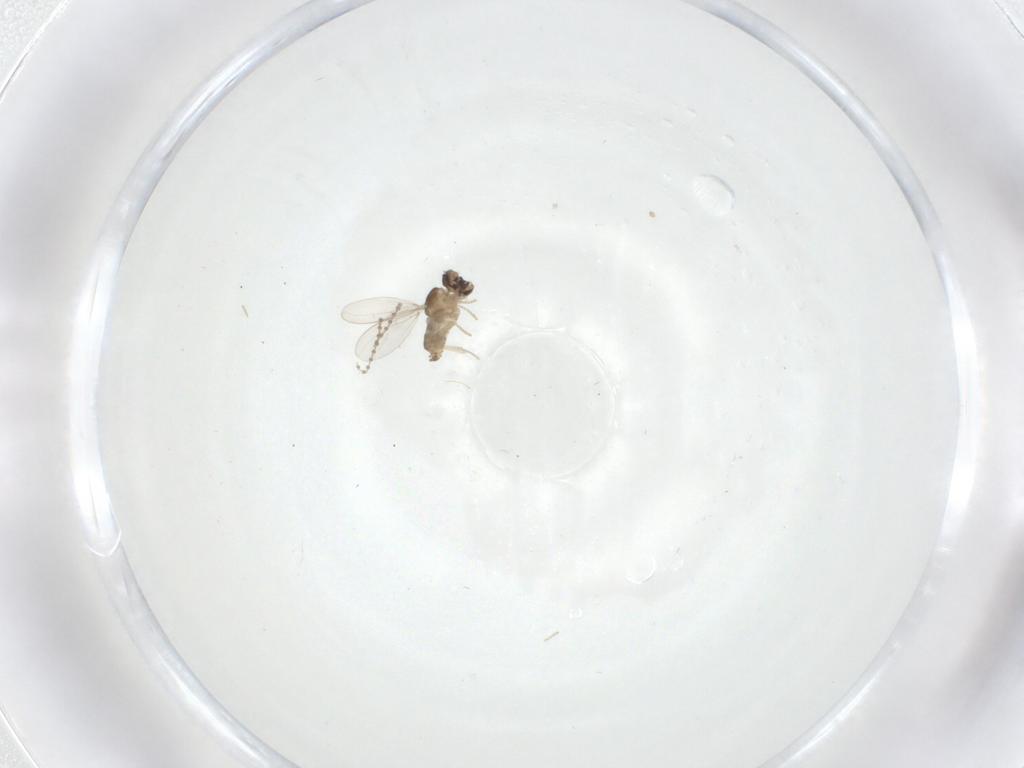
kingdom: Animalia
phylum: Arthropoda
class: Insecta
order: Diptera
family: Cecidomyiidae
